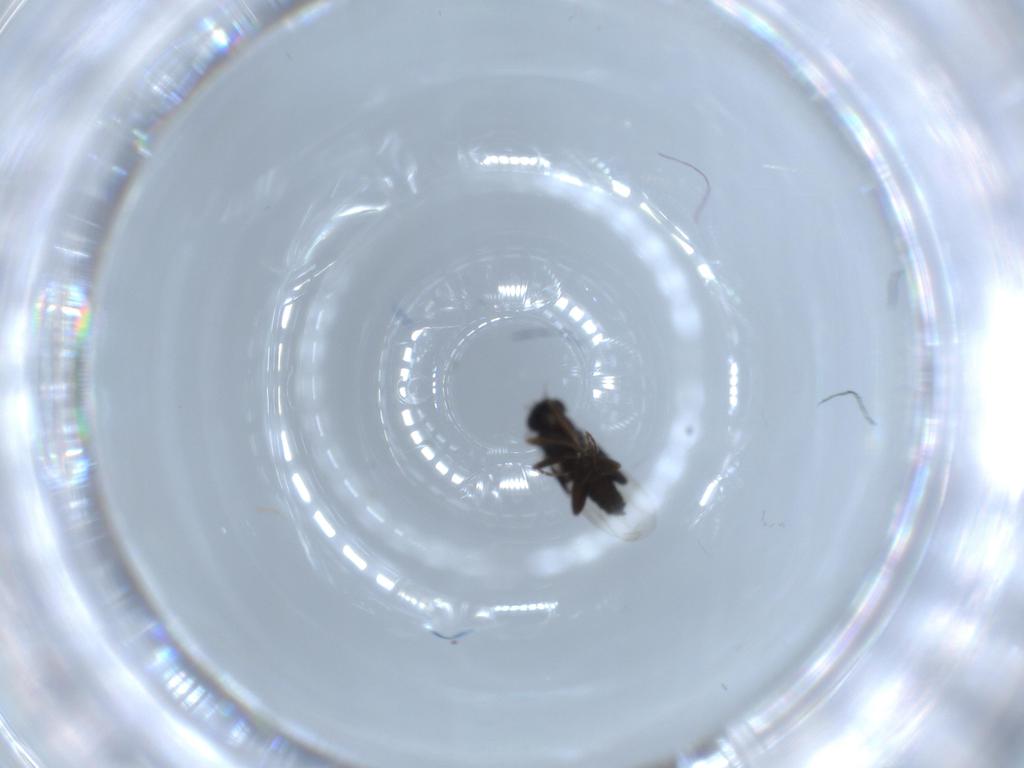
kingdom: Animalia
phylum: Arthropoda
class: Insecta
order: Diptera
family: Phoridae
